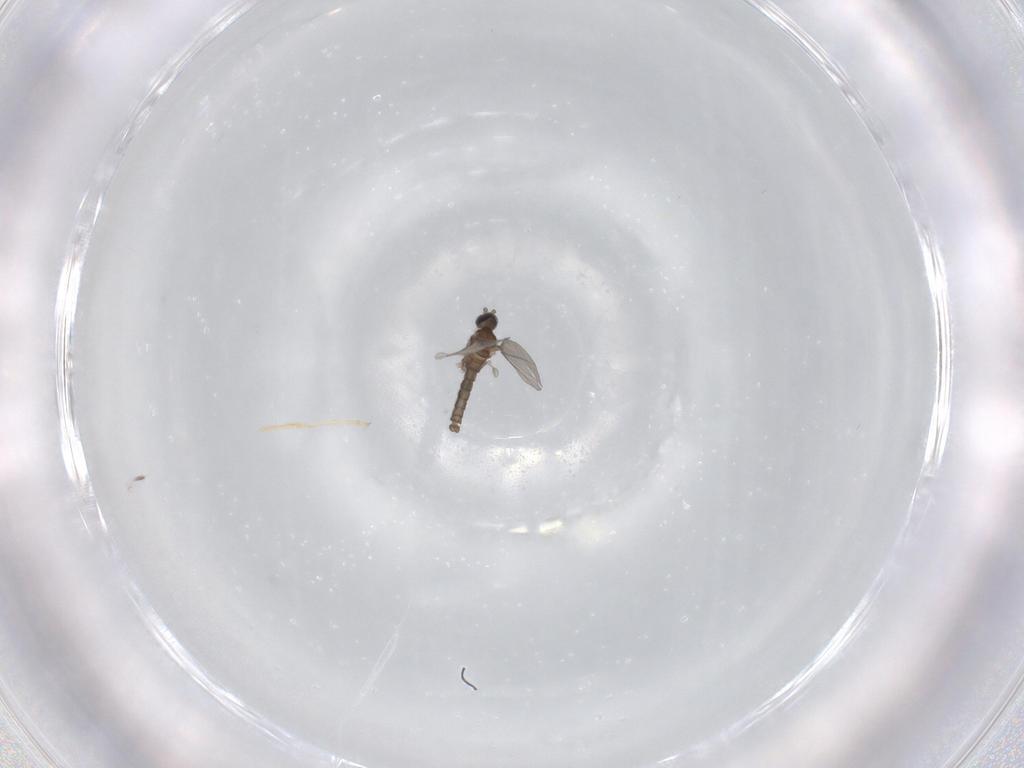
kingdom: Animalia
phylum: Arthropoda
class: Insecta
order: Diptera
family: Cecidomyiidae
